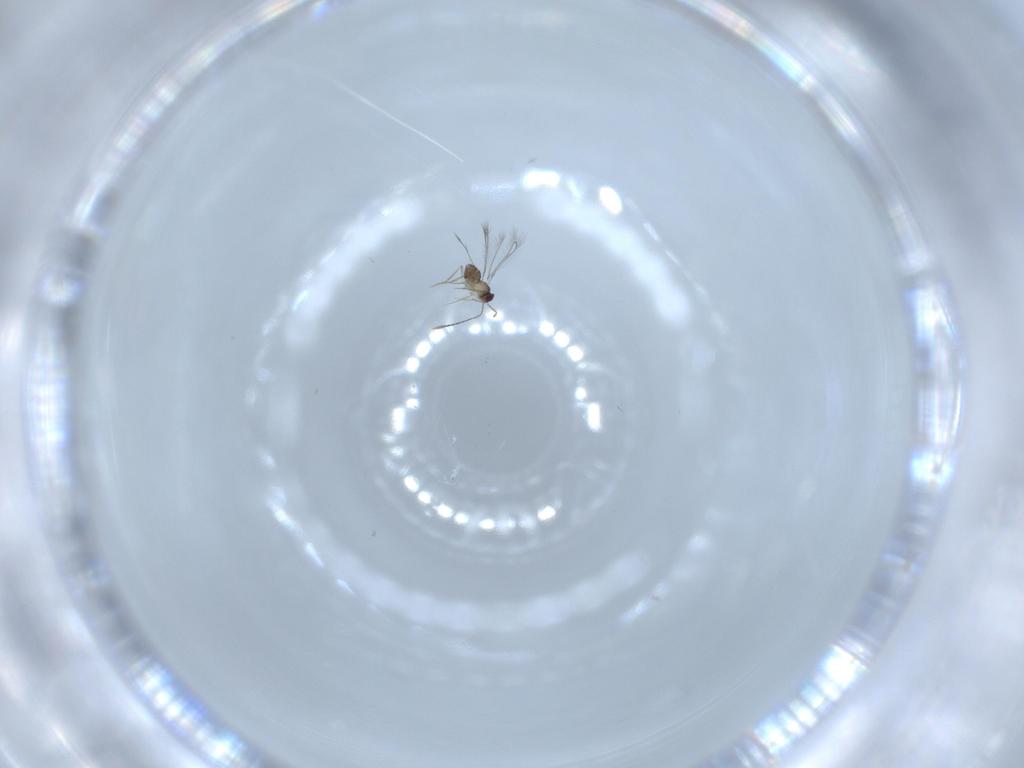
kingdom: Animalia
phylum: Arthropoda
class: Insecta
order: Hymenoptera
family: Mymaridae
